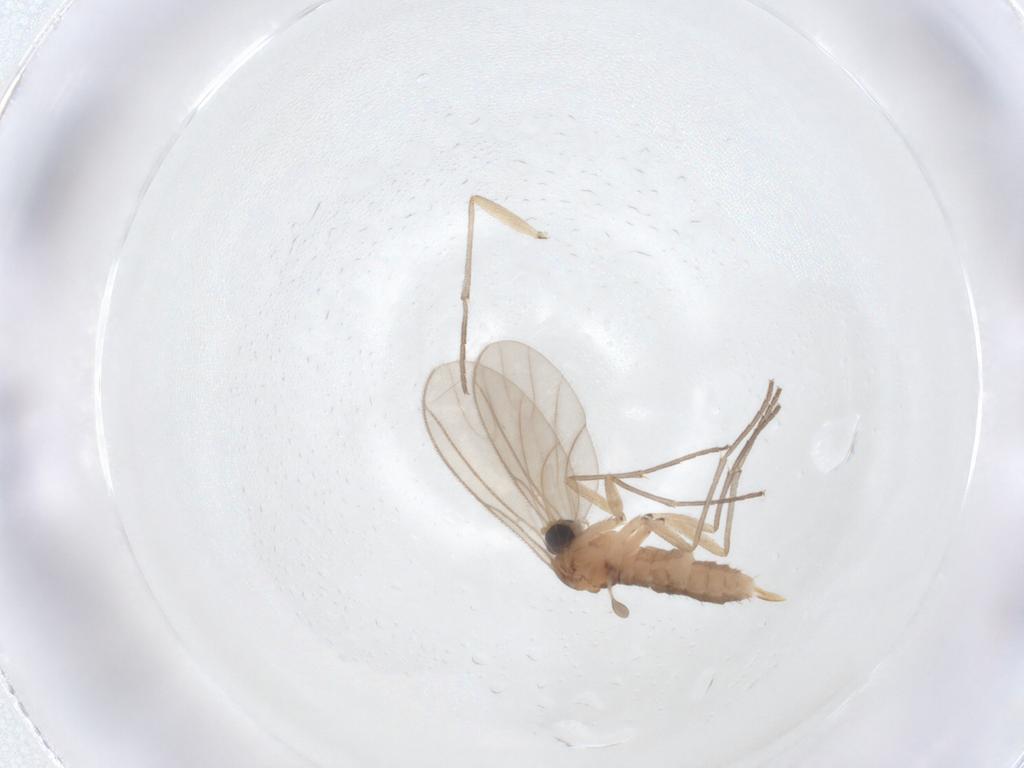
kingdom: Animalia
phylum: Arthropoda
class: Insecta
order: Diptera
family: Sciaridae
